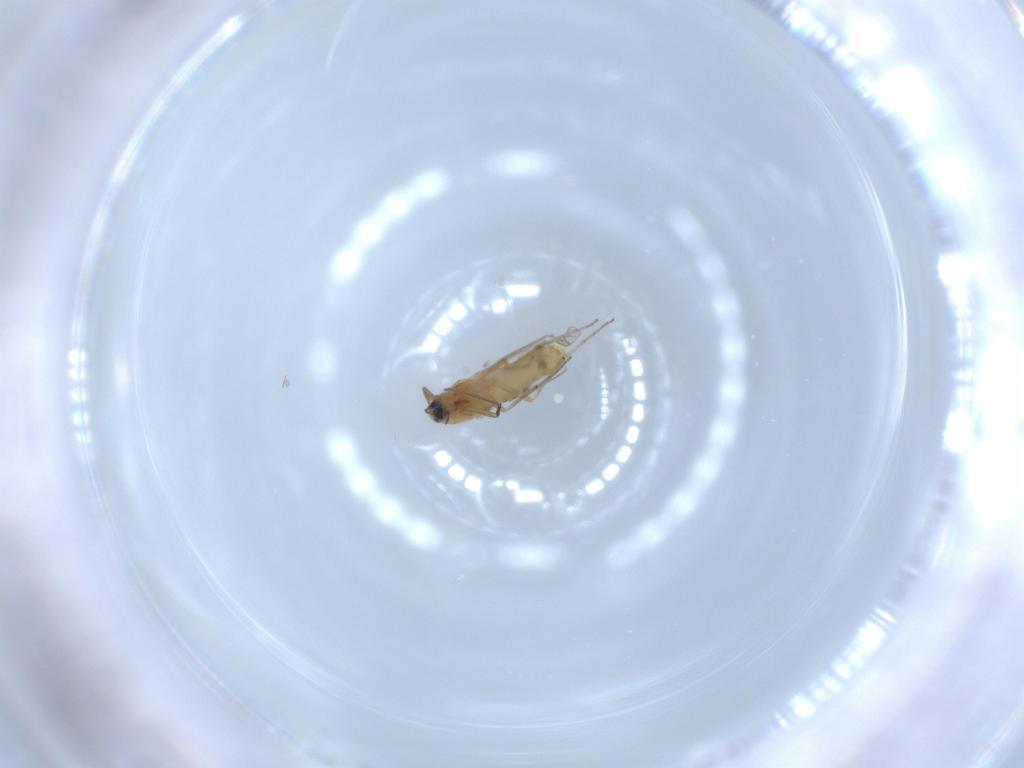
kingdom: Animalia
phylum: Arthropoda
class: Insecta
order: Diptera
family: Chironomidae
